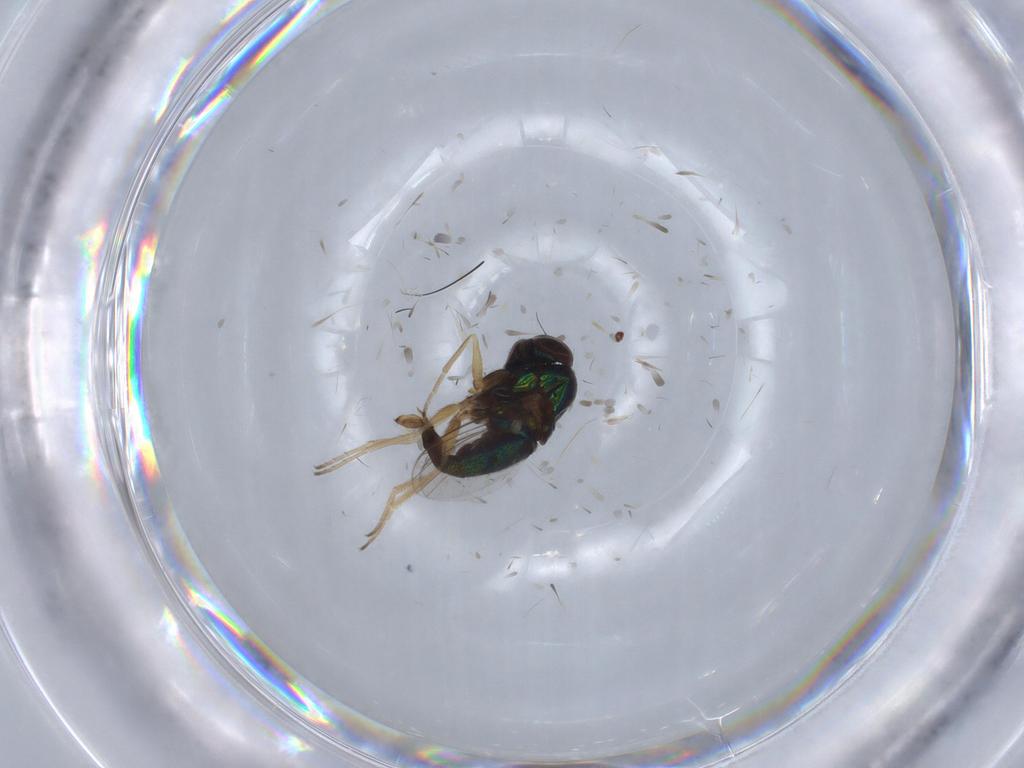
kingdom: Animalia
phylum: Arthropoda
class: Insecta
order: Diptera
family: Dolichopodidae
